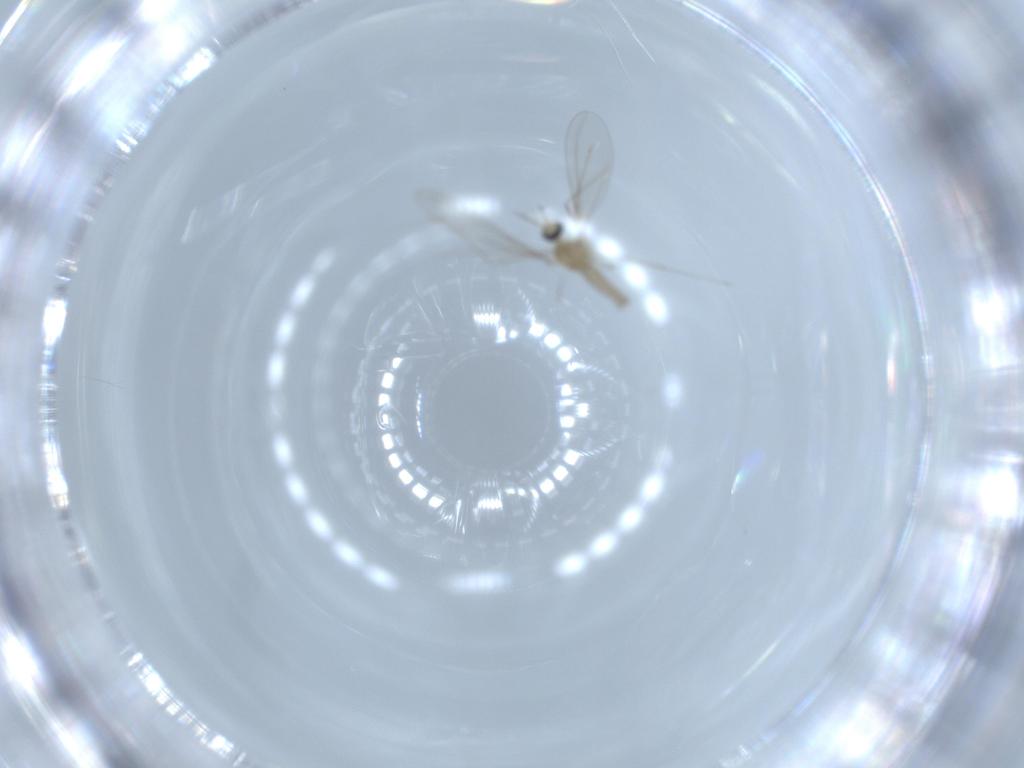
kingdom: Animalia
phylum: Arthropoda
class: Insecta
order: Diptera
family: Cecidomyiidae
